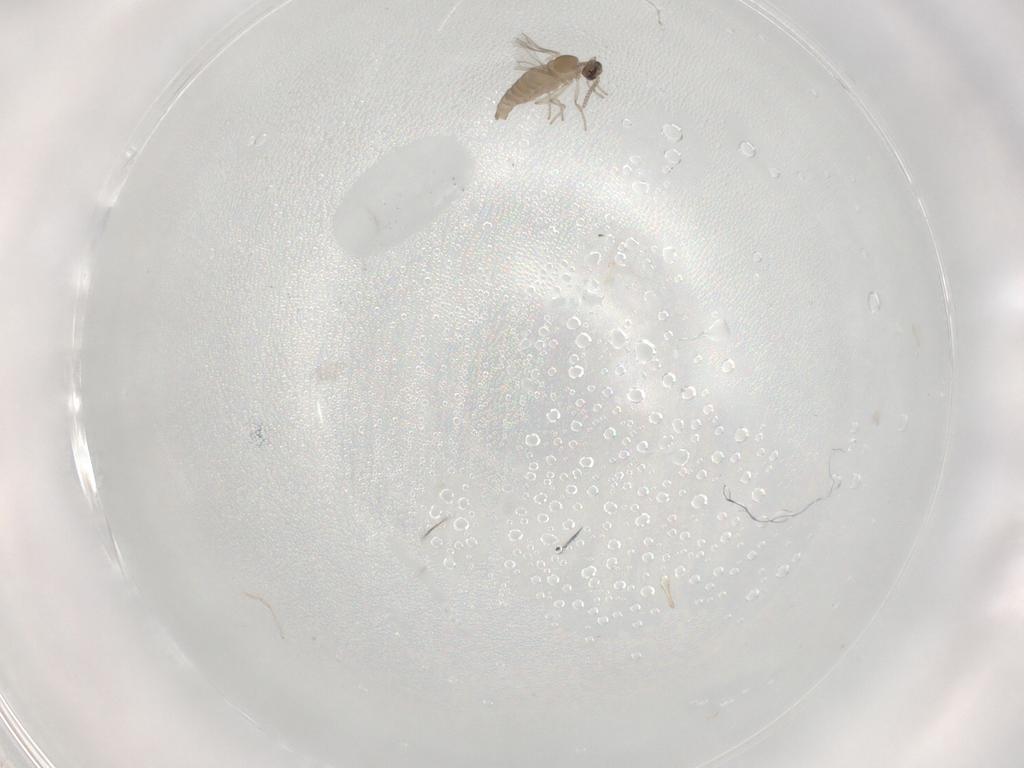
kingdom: Animalia
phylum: Arthropoda
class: Insecta
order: Diptera
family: Cecidomyiidae
